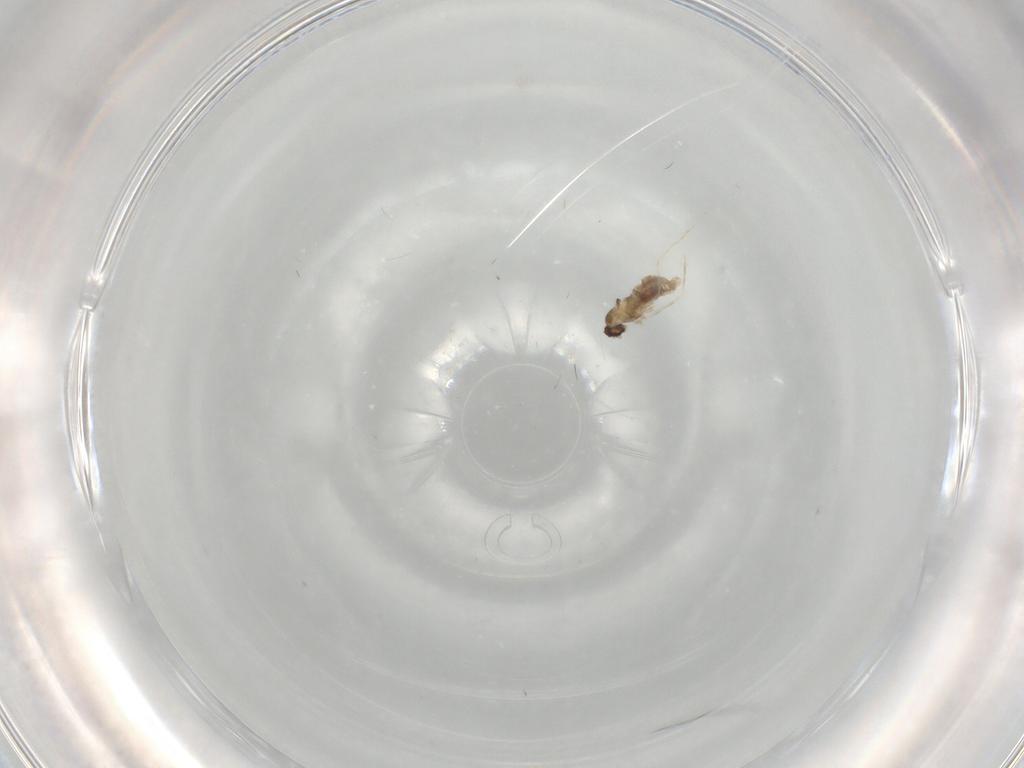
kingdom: Animalia
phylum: Arthropoda
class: Insecta
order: Diptera
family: Cecidomyiidae
